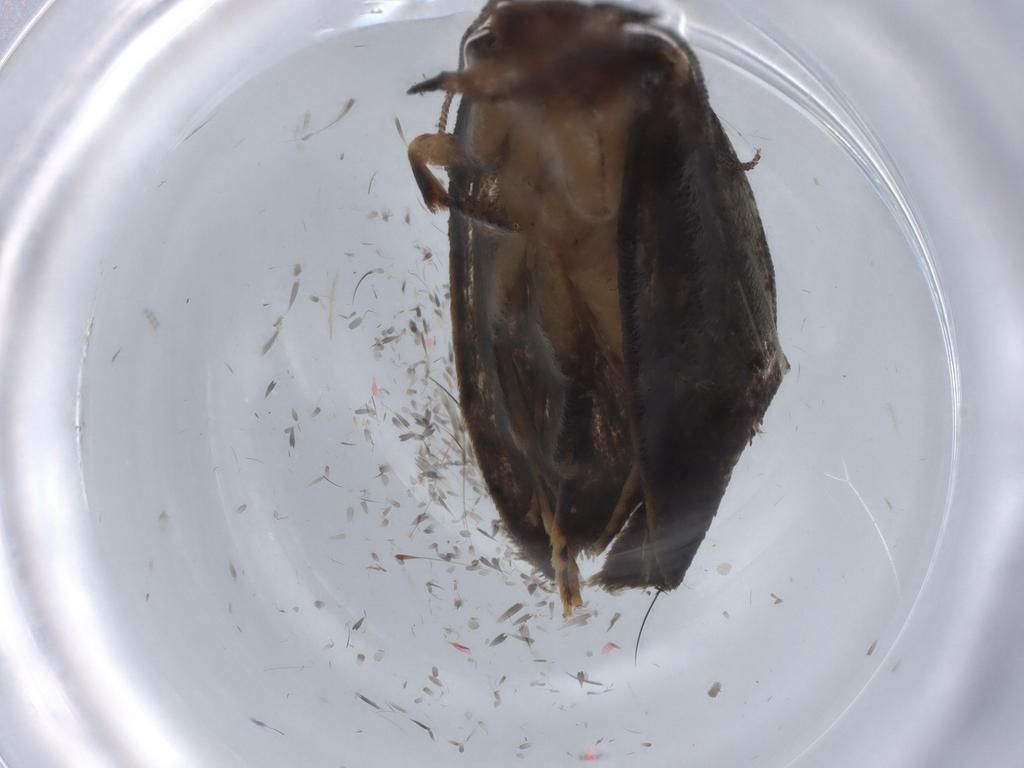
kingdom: Animalia
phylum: Arthropoda
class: Insecta
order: Lepidoptera
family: Tineidae
